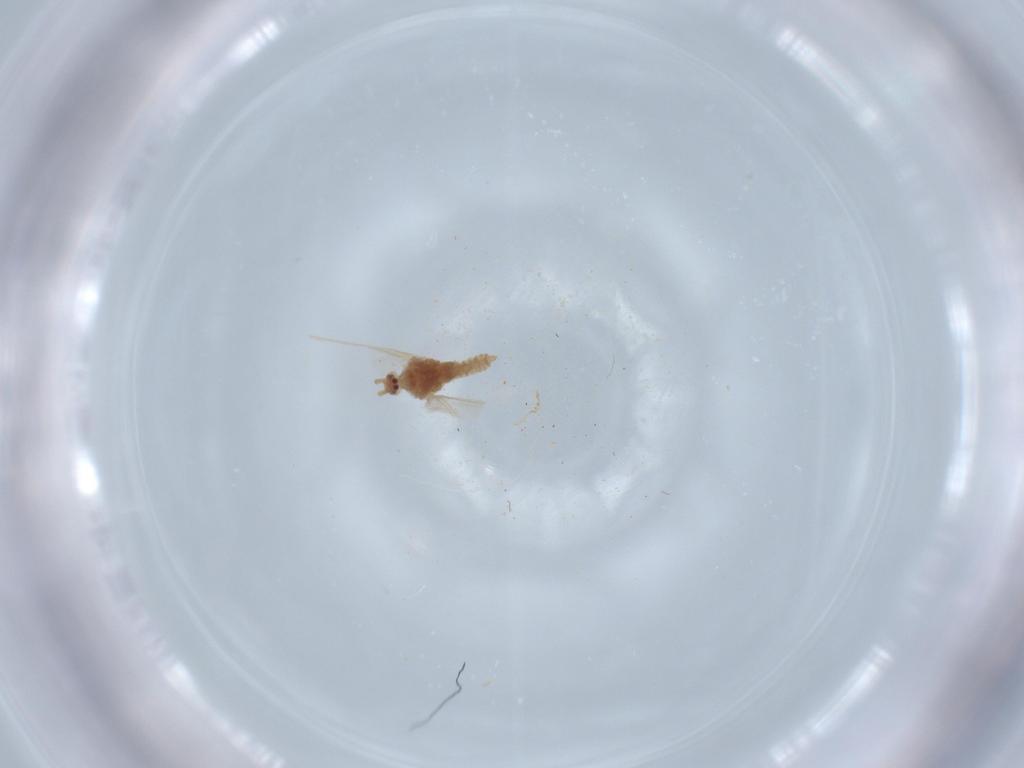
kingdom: Animalia
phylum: Arthropoda
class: Insecta
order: Hemiptera
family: Pseudococcidae
